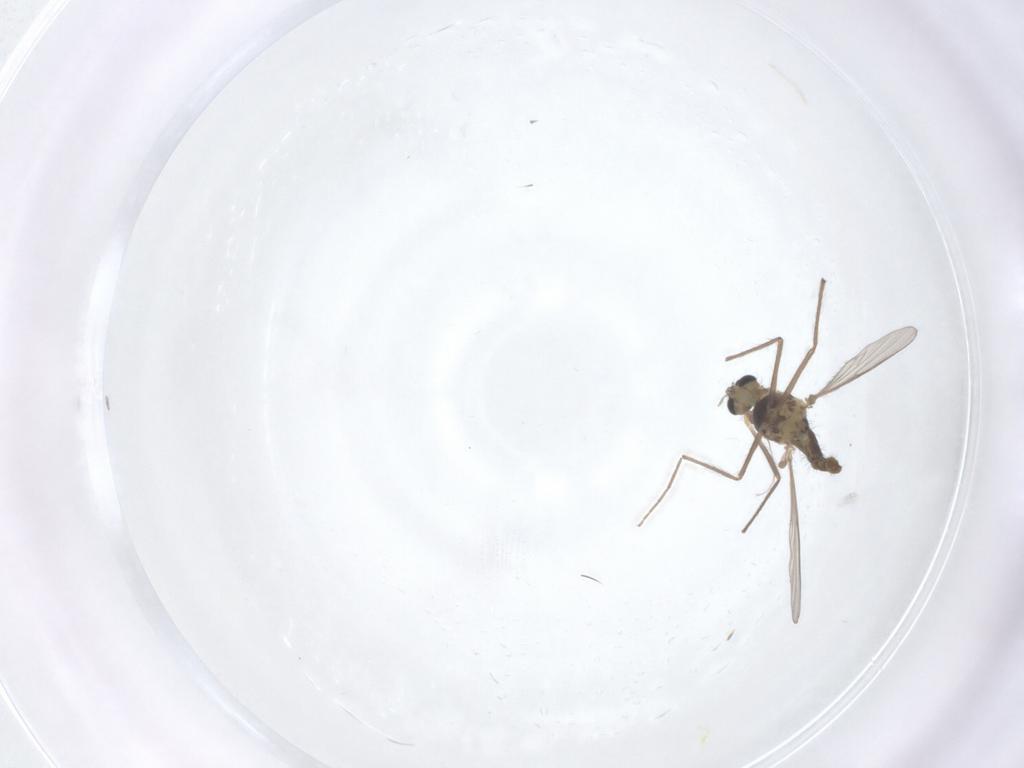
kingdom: Animalia
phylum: Arthropoda
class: Insecta
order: Diptera
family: Chironomidae
